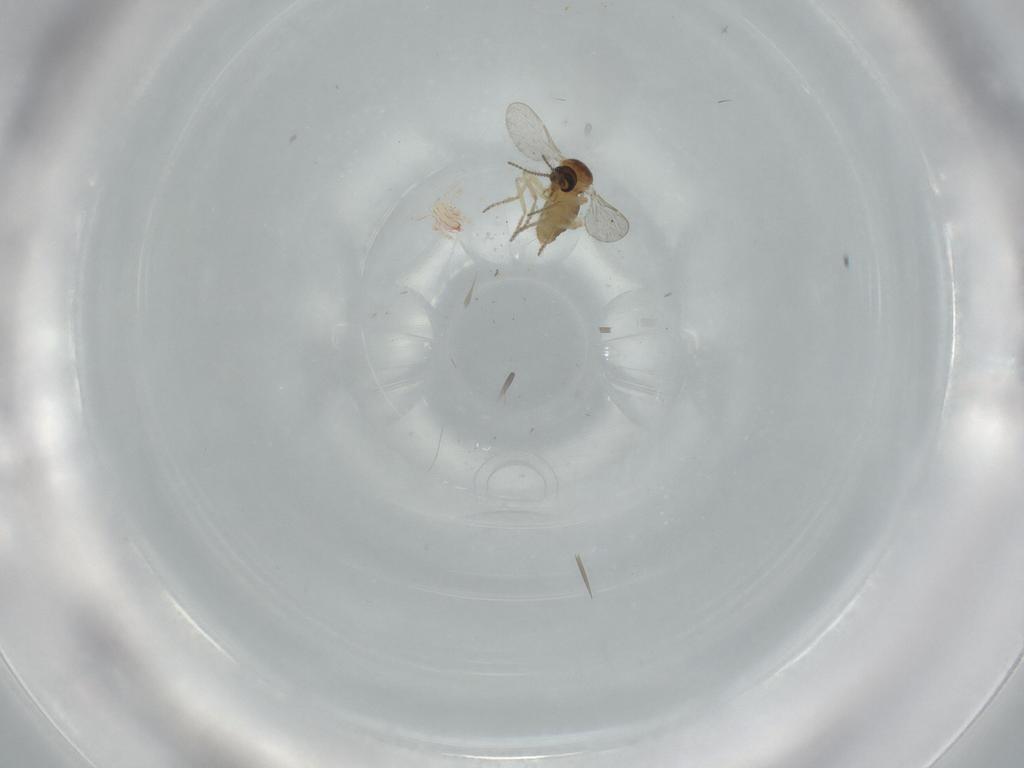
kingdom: Animalia
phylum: Arthropoda
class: Insecta
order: Diptera
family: Ceratopogonidae
